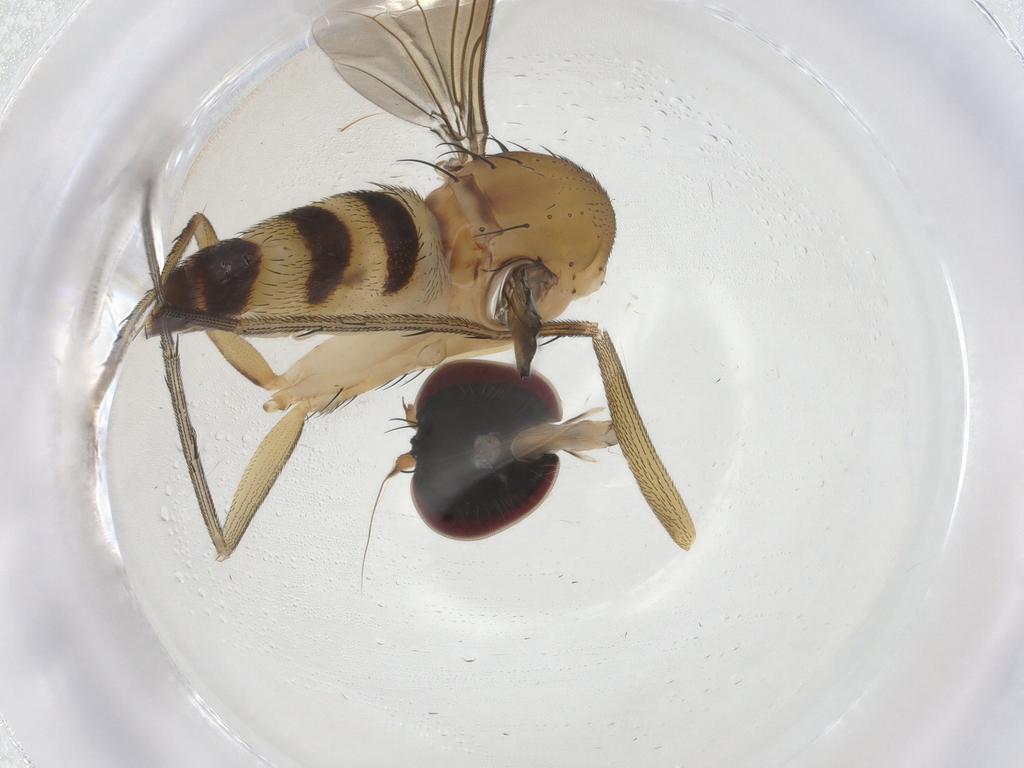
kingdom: Animalia
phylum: Arthropoda
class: Insecta
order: Diptera
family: Dolichopodidae
